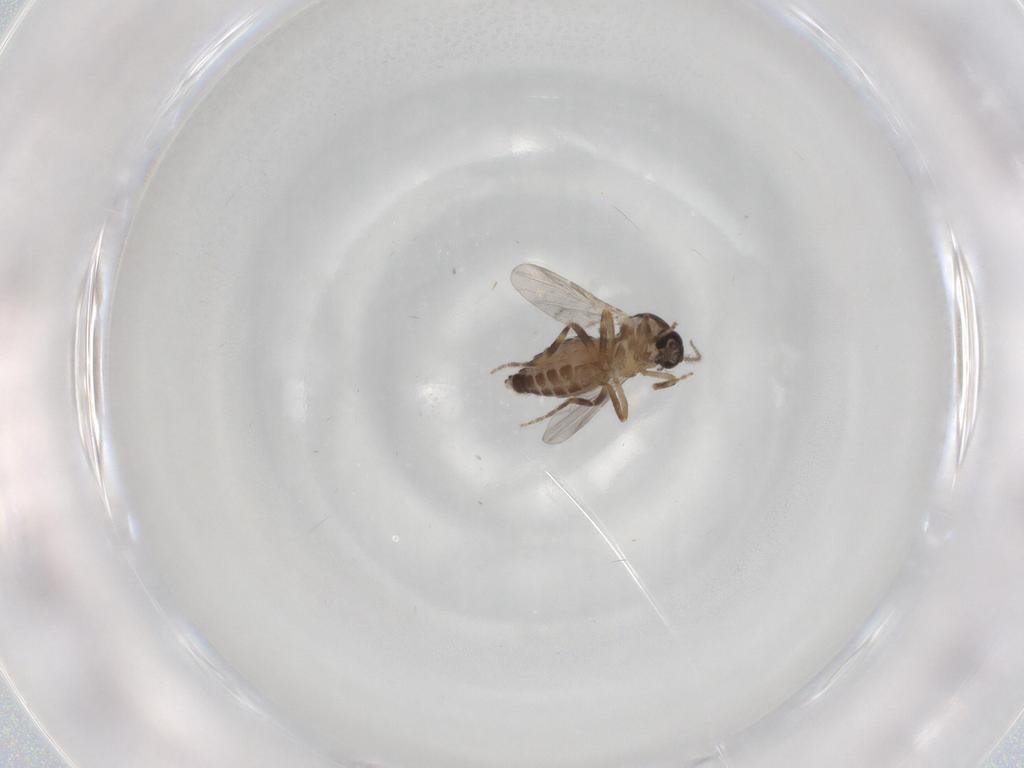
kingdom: Animalia
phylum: Arthropoda
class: Insecta
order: Diptera
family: Ceratopogonidae
